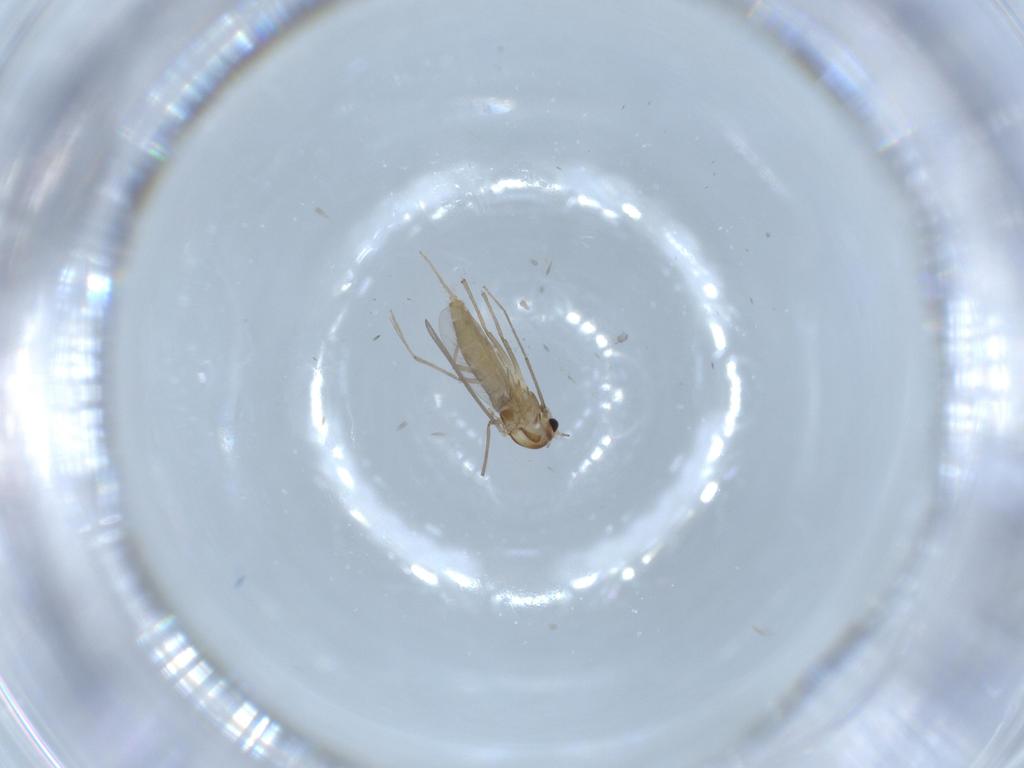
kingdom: Animalia
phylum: Arthropoda
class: Insecta
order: Diptera
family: Chironomidae
